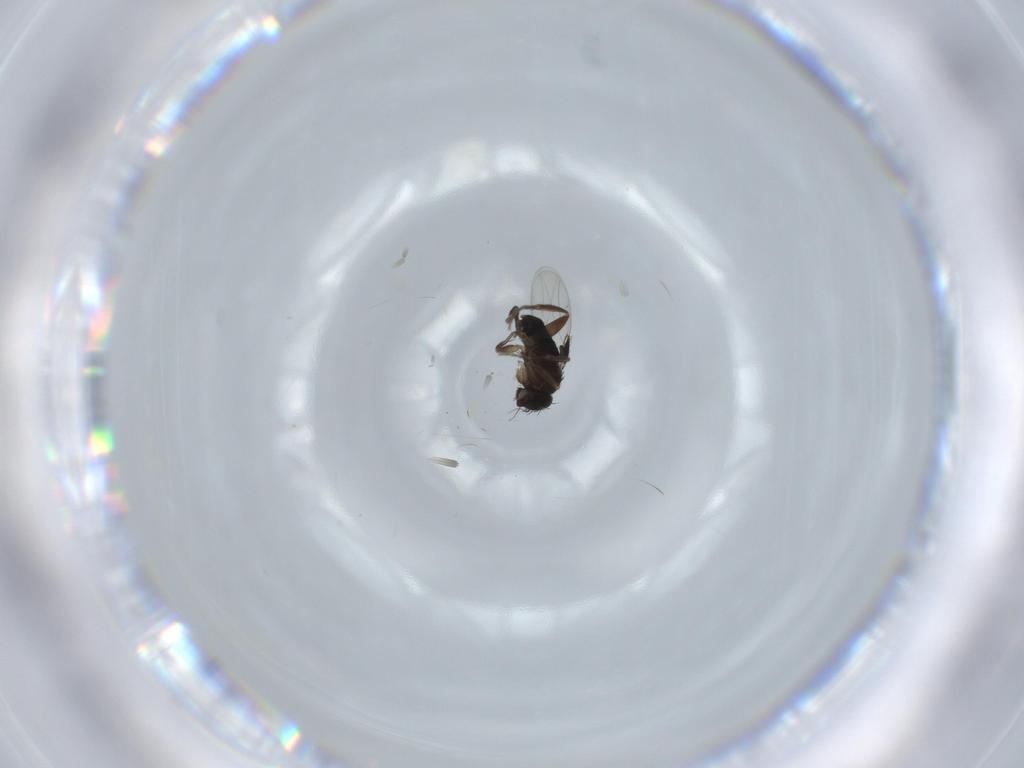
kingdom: Animalia
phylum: Arthropoda
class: Insecta
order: Diptera
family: Phoridae
